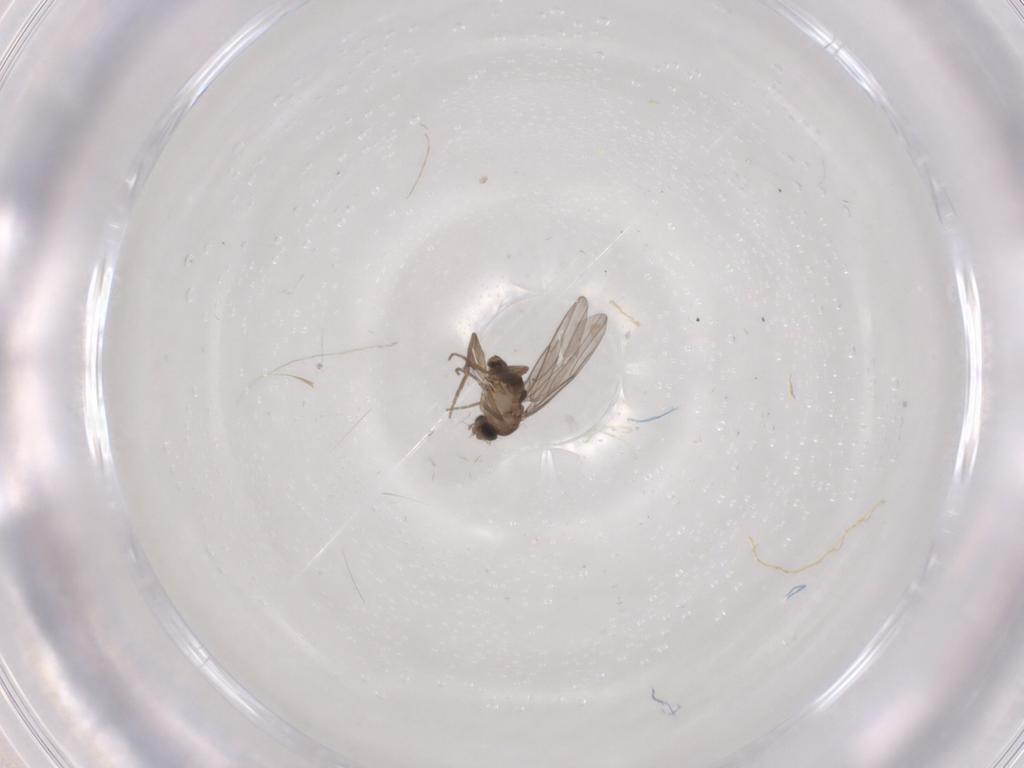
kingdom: Animalia
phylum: Arthropoda
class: Insecta
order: Diptera
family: Phoridae
